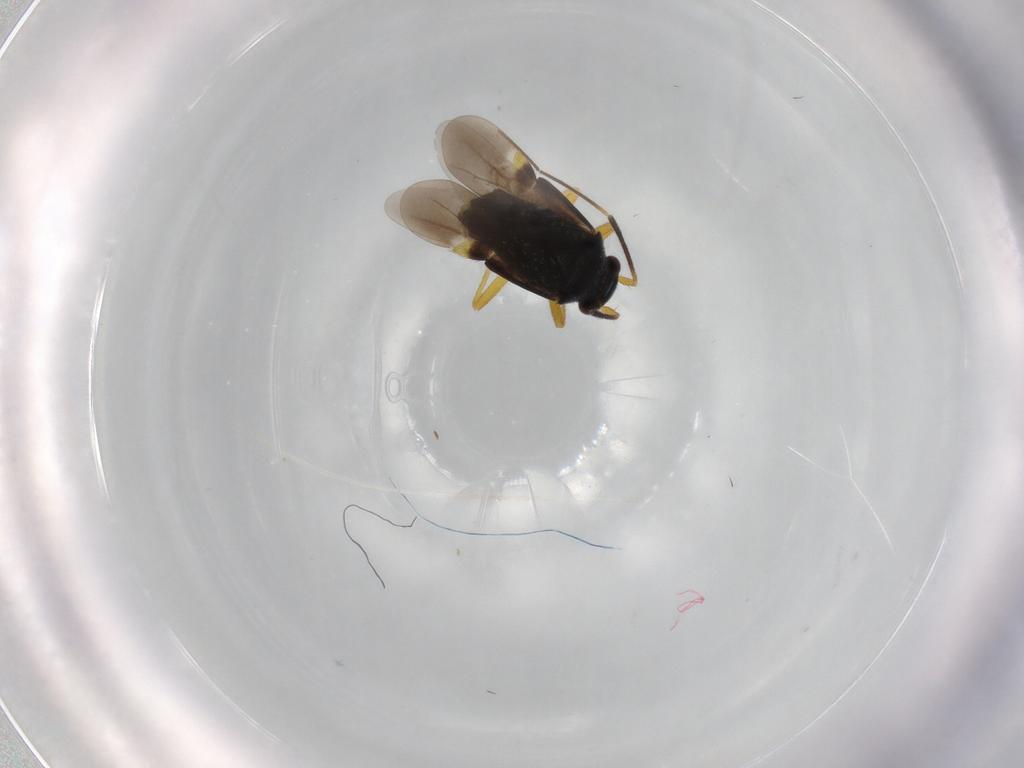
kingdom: Animalia
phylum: Arthropoda
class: Insecta
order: Hemiptera
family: Miridae
